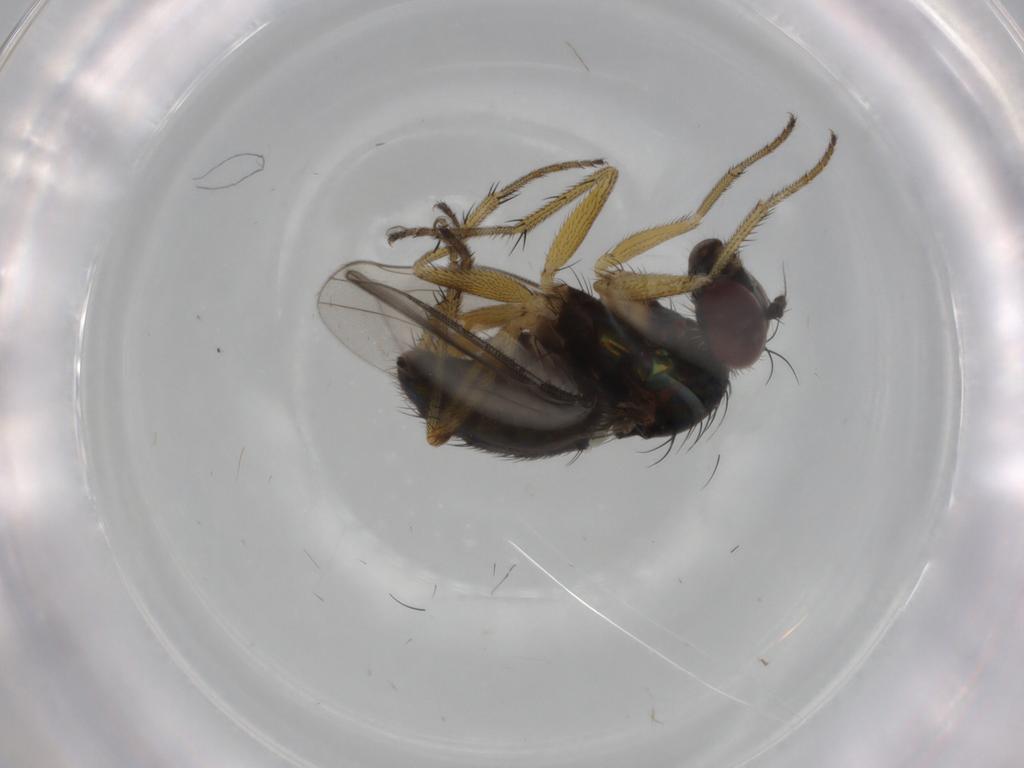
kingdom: Animalia
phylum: Arthropoda
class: Insecta
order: Diptera
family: Dolichopodidae
